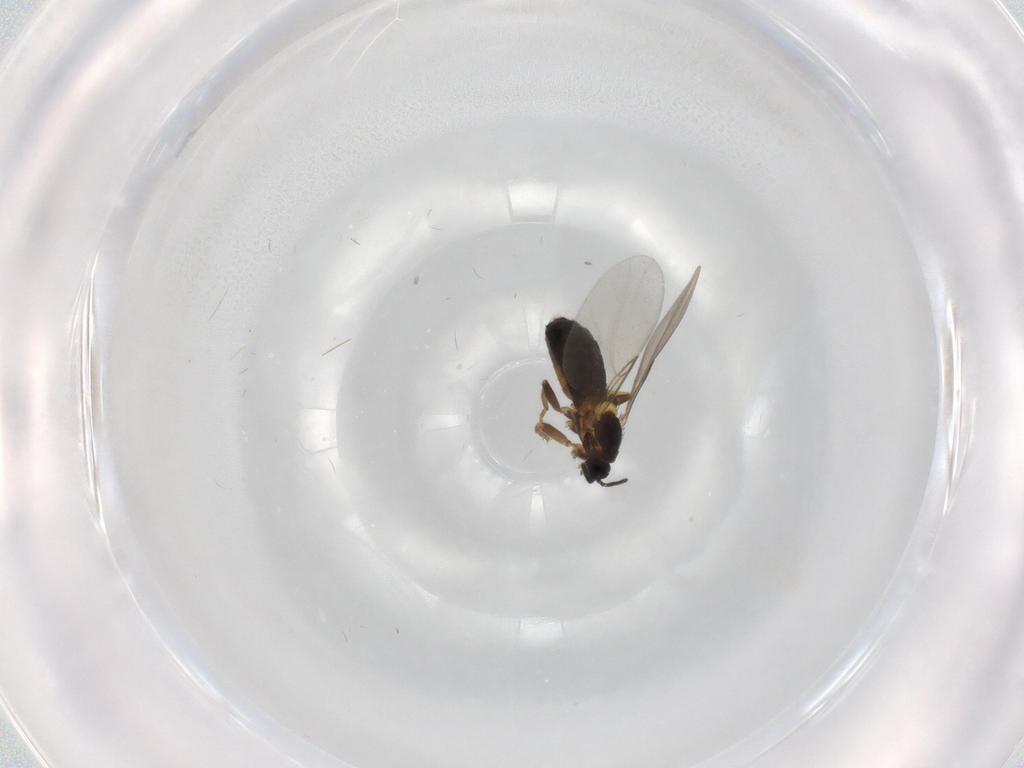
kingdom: Animalia
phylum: Arthropoda
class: Insecta
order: Diptera
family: Scatopsidae
